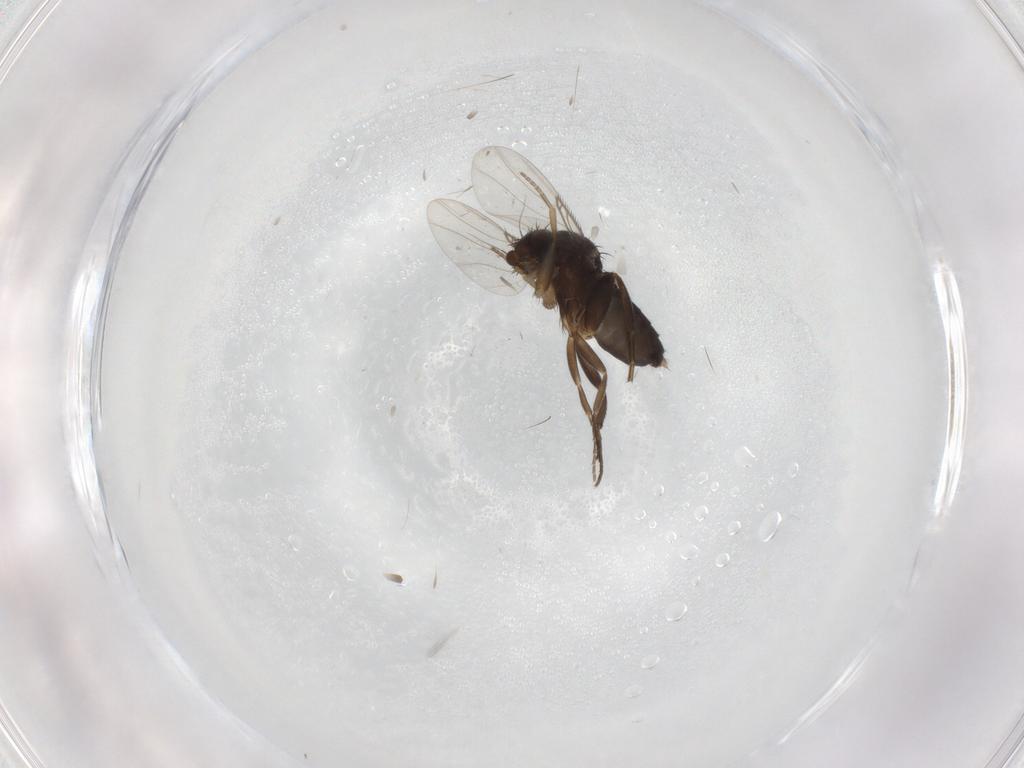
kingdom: Animalia
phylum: Arthropoda
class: Insecta
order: Diptera
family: Phoridae
